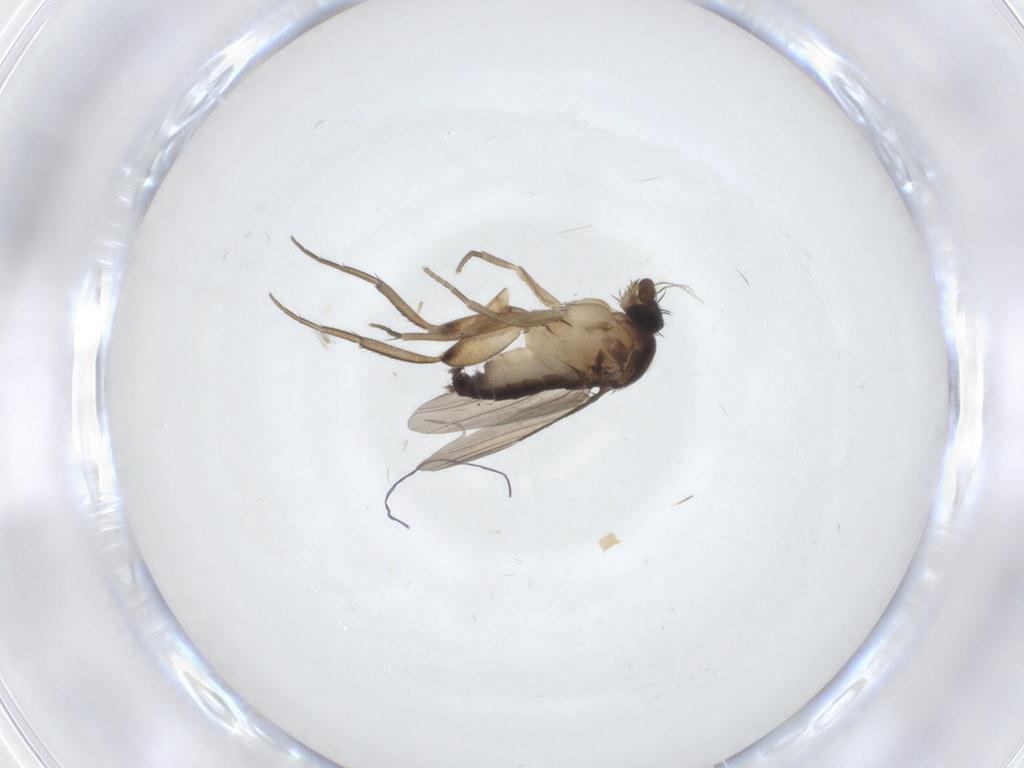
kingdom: Animalia
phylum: Arthropoda
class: Insecta
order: Diptera
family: Phoridae
